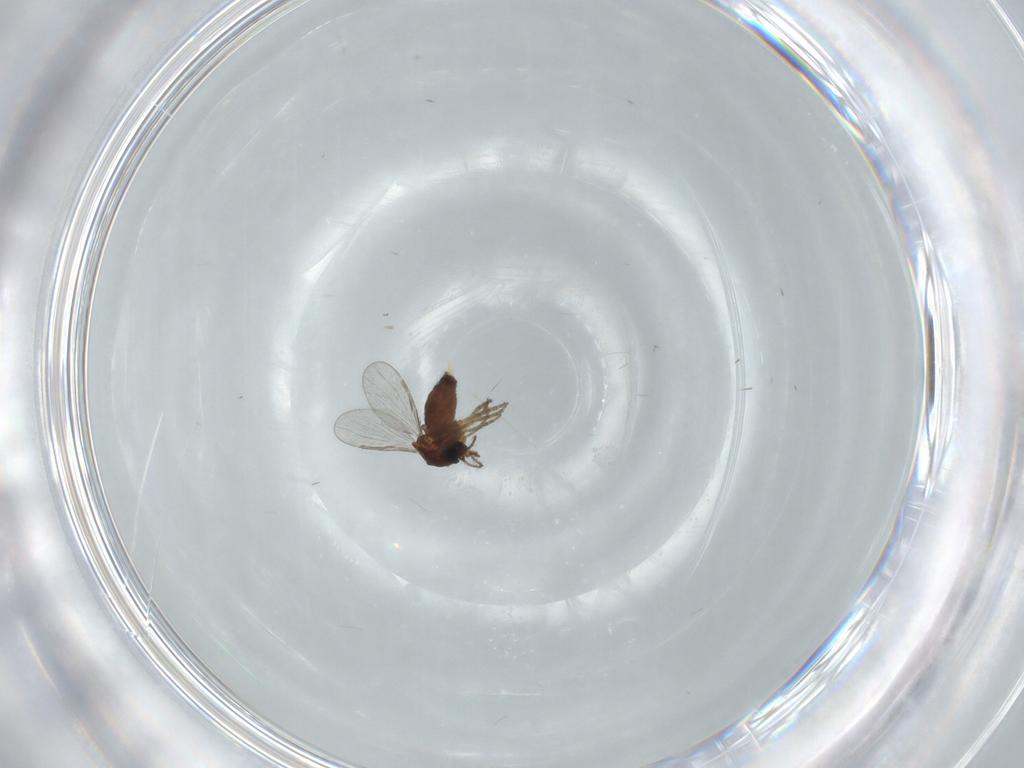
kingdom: Animalia
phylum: Arthropoda
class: Insecta
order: Diptera
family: Ceratopogonidae
